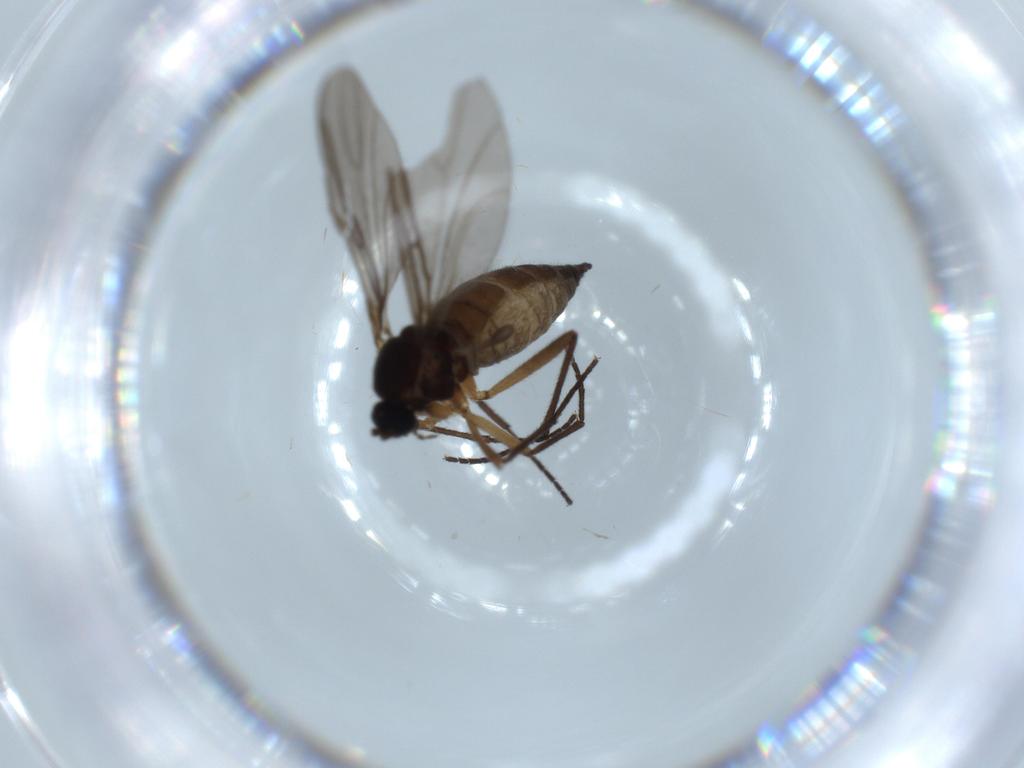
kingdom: Animalia
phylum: Arthropoda
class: Insecta
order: Diptera
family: Sciaridae
